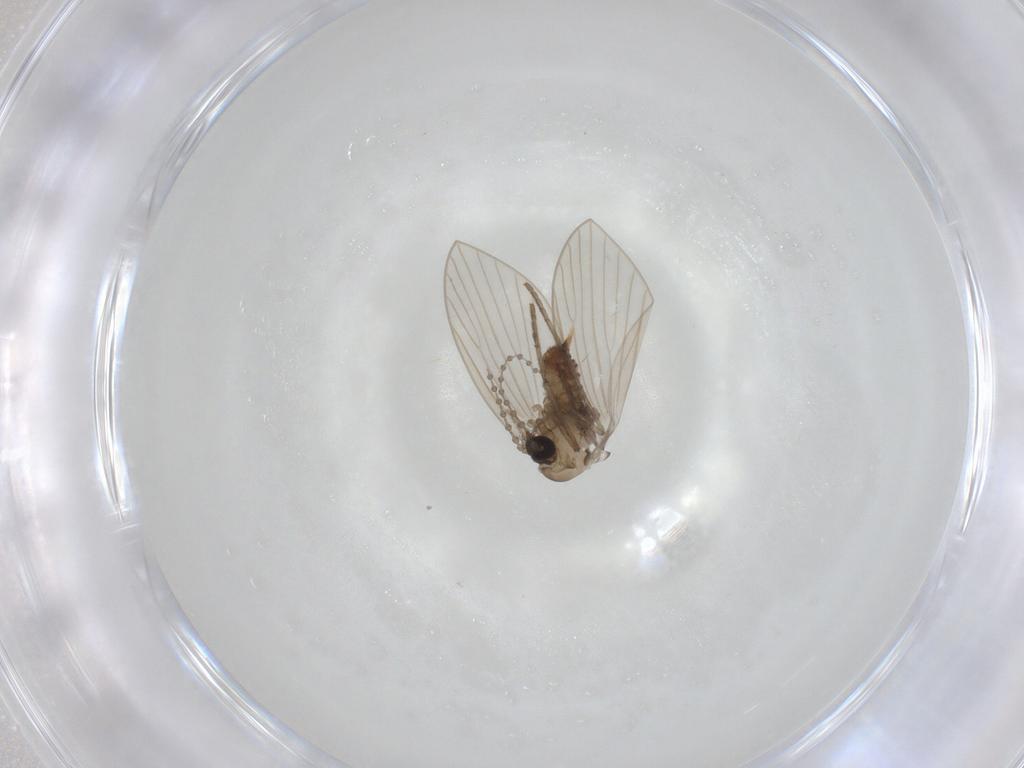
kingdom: Animalia
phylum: Arthropoda
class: Insecta
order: Diptera
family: Psychodidae
